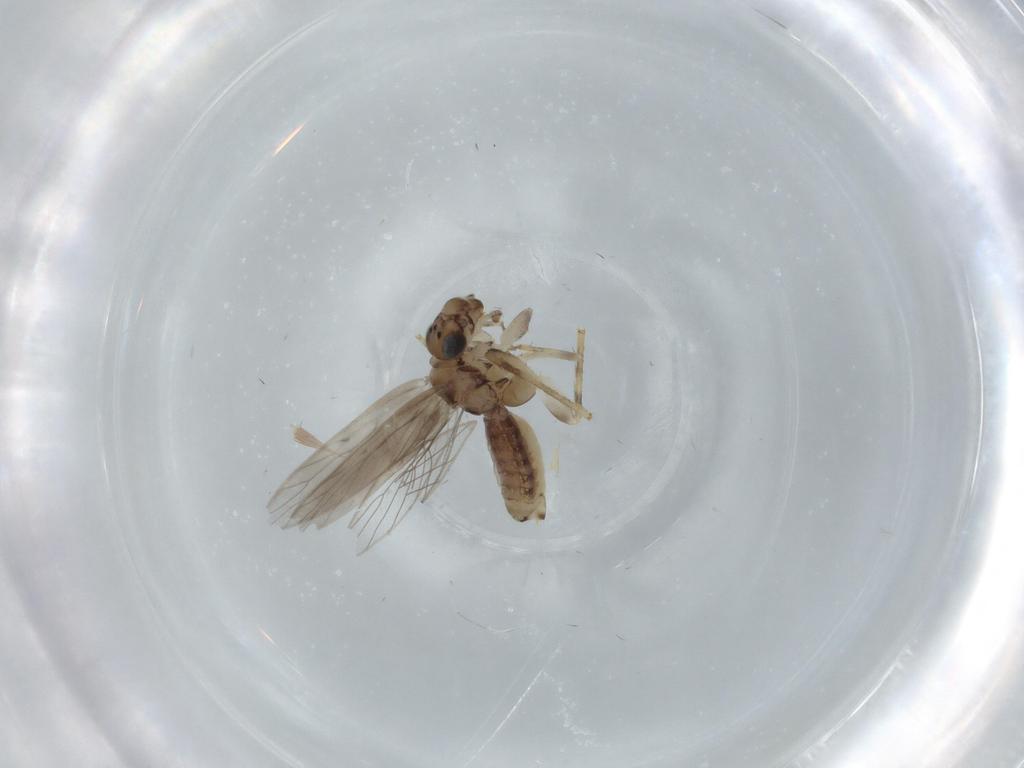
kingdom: Animalia
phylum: Arthropoda
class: Insecta
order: Psocodea
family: Lepidopsocidae
